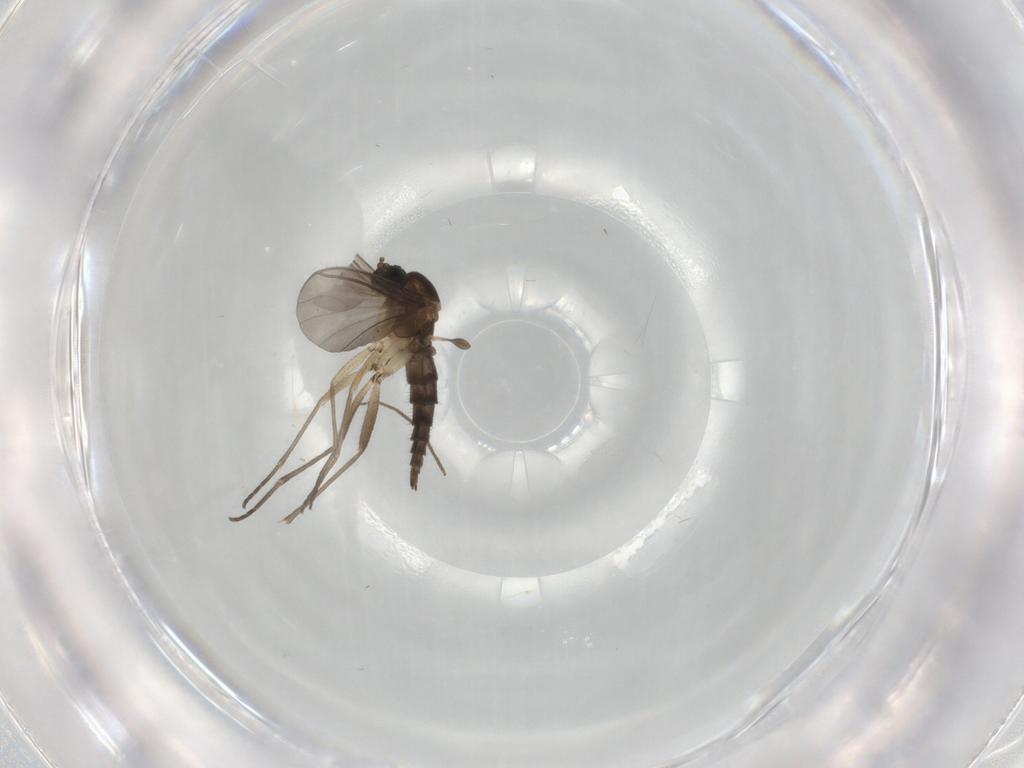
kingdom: Animalia
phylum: Arthropoda
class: Insecta
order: Diptera
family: Sciaridae
